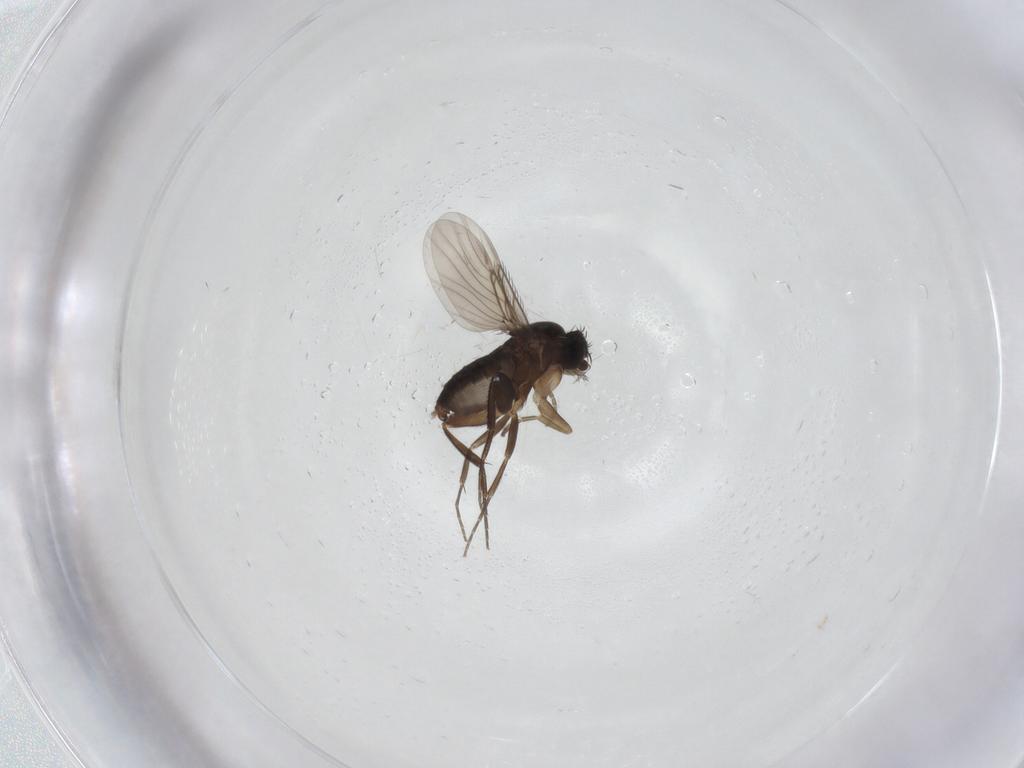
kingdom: Animalia
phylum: Arthropoda
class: Insecta
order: Diptera
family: Phoridae
